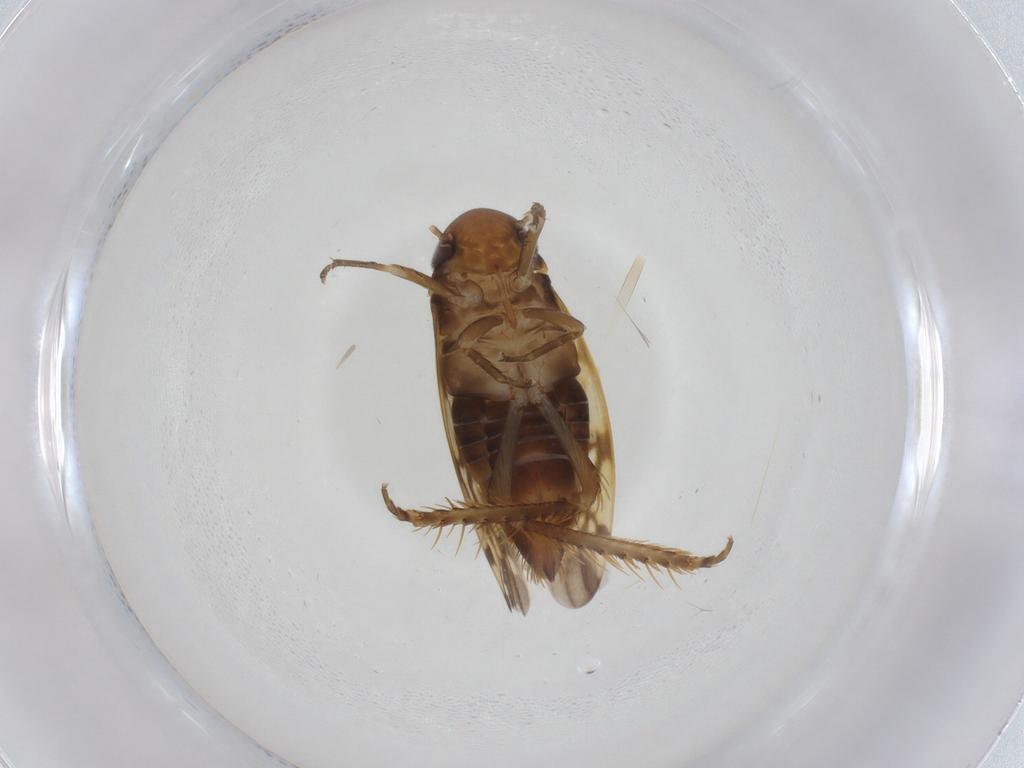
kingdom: Animalia
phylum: Arthropoda
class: Insecta
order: Hemiptera
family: Cicadellidae
